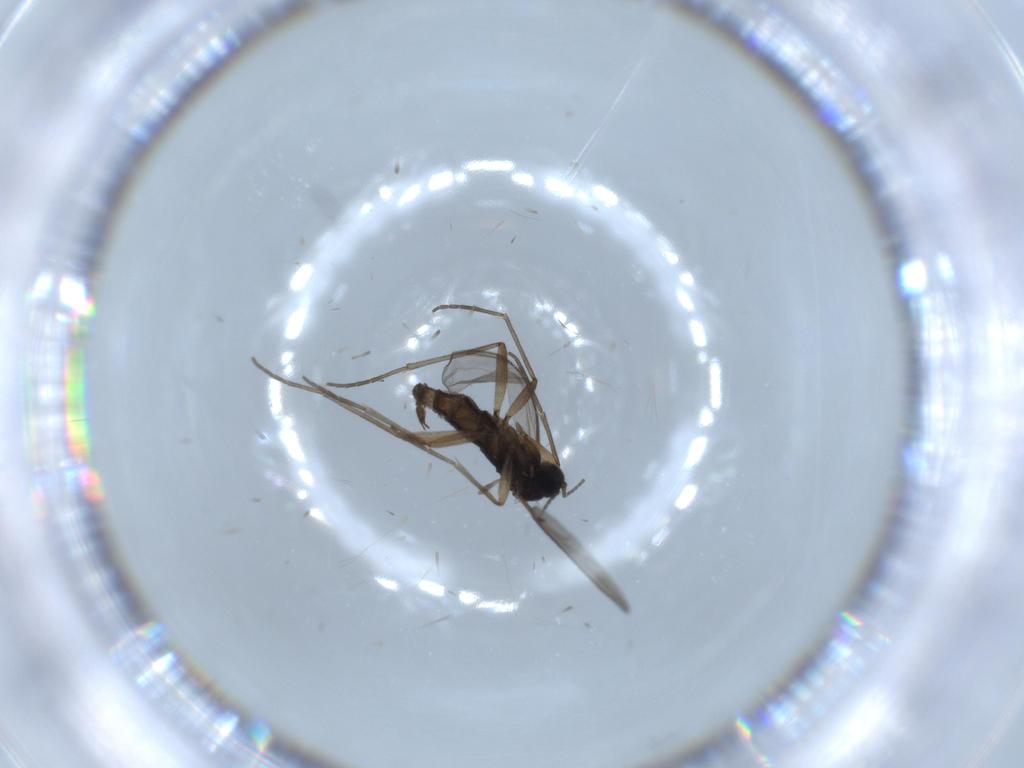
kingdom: Animalia
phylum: Arthropoda
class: Insecta
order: Diptera
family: Sciaridae
